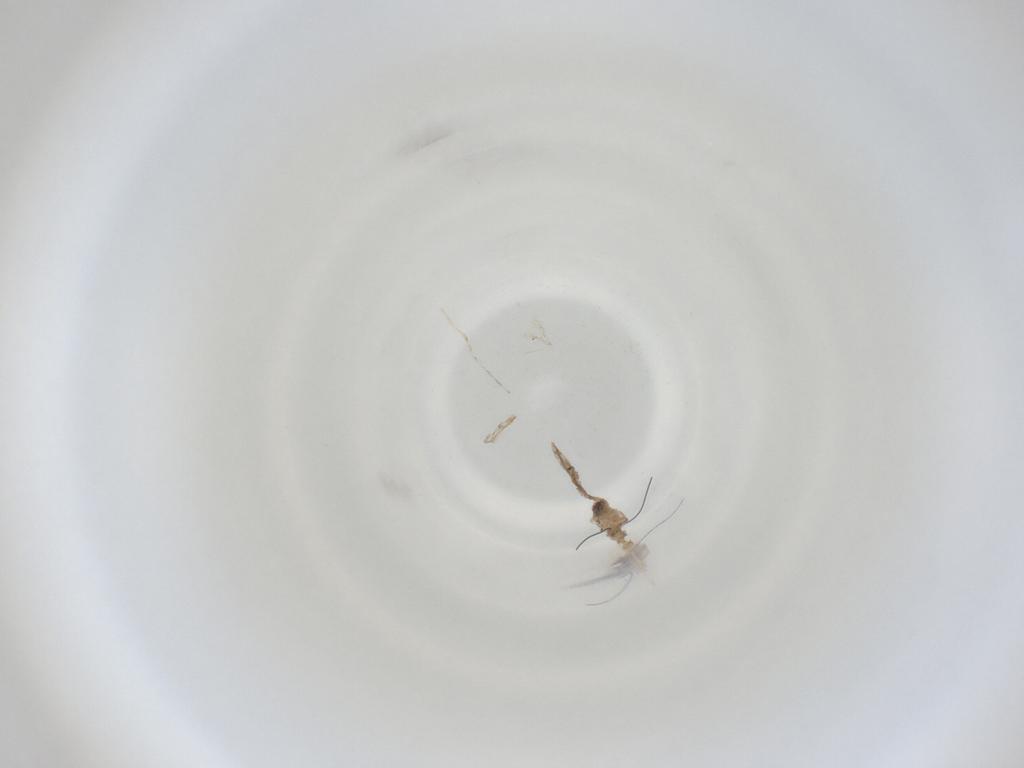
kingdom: Animalia
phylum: Arthropoda
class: Insecta
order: Diptera
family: Cecidomyiidae
